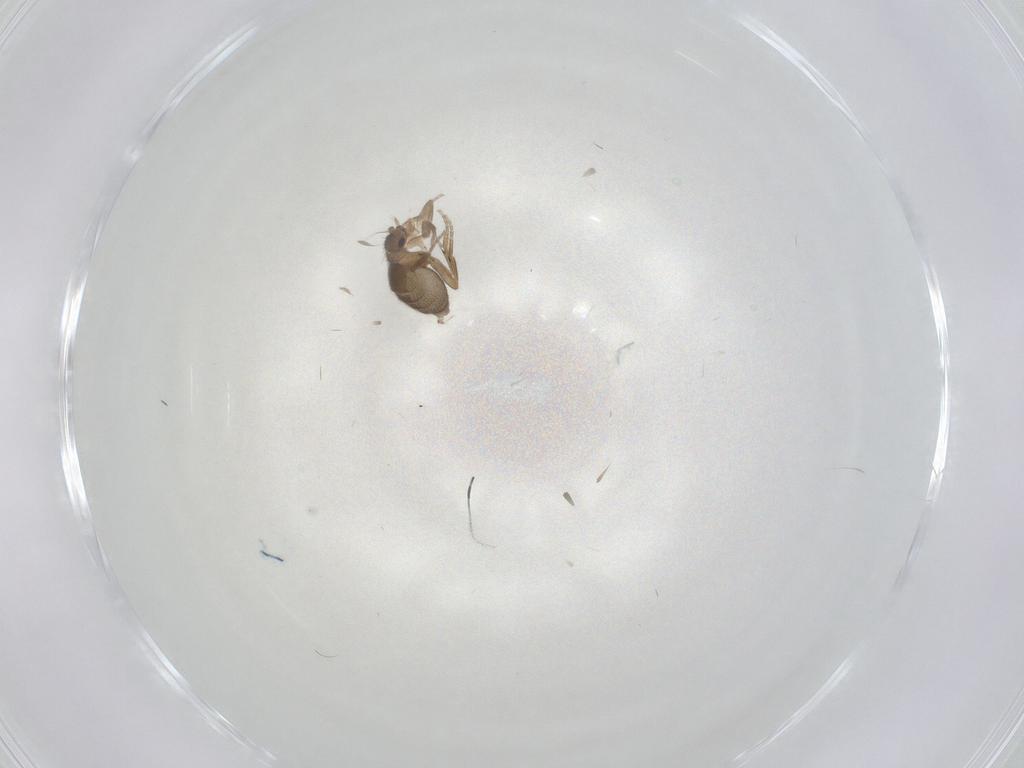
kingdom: Animalia
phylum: Arthropoda
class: Insecta
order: Diptera
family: Phoridae
